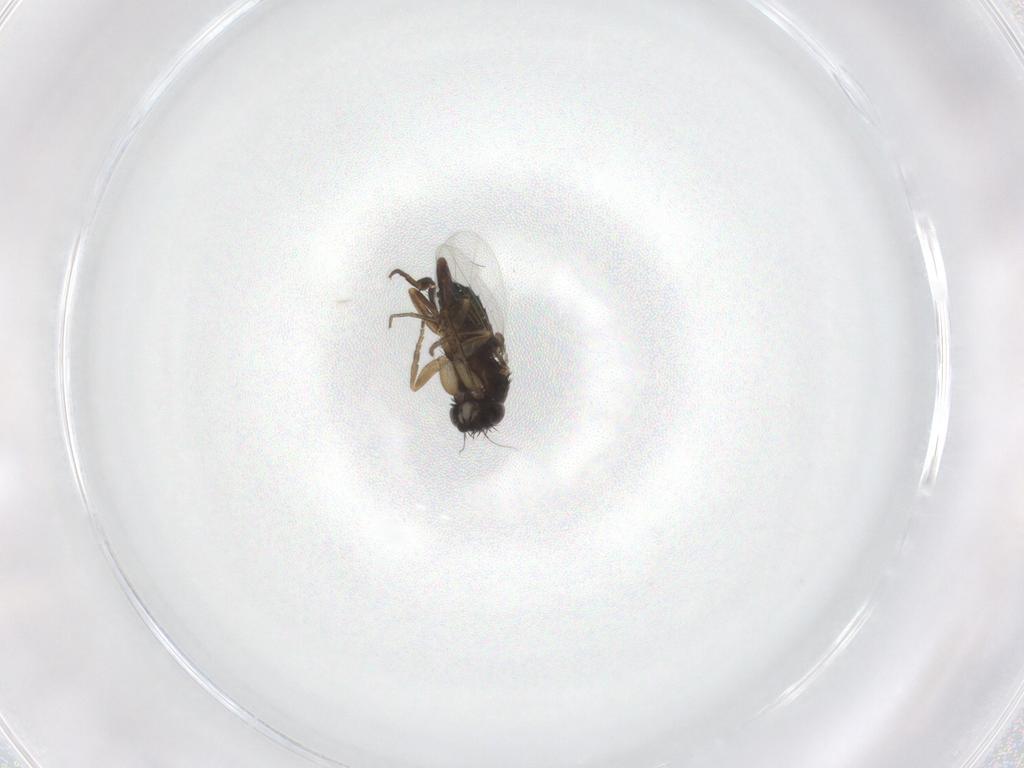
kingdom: Animalia
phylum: Arthropoda
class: Insecta
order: Diptera
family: Phoridae
